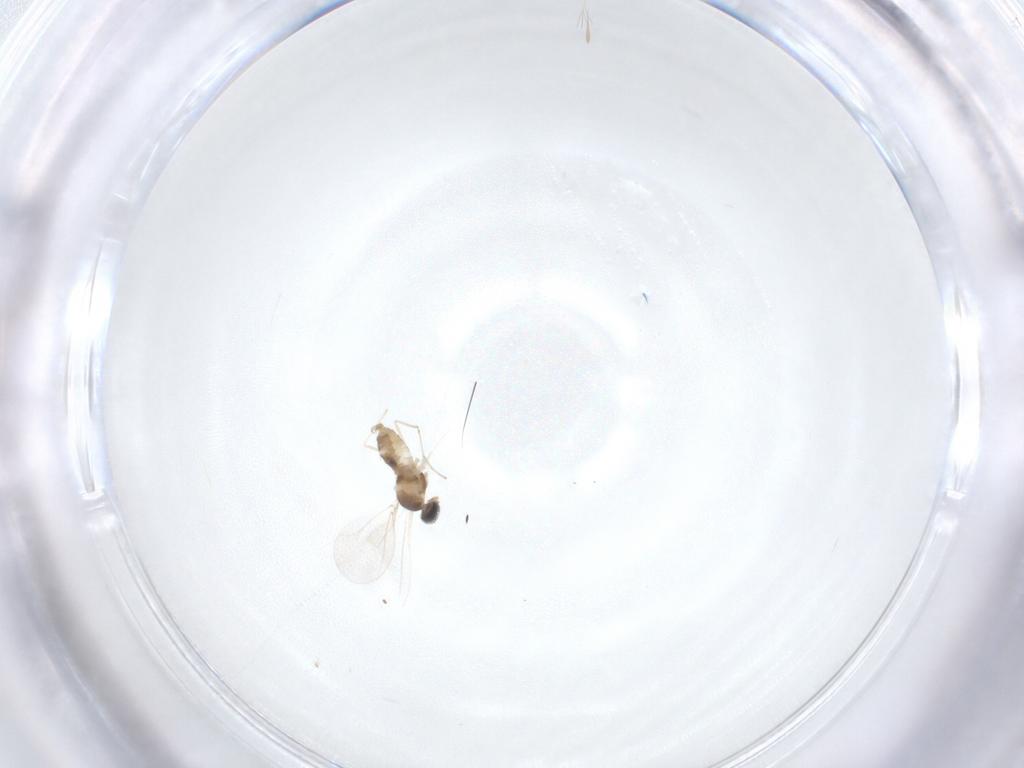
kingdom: Animalia
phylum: Arthropoda
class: Insecta
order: Diptera
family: Cecidomyiidae
